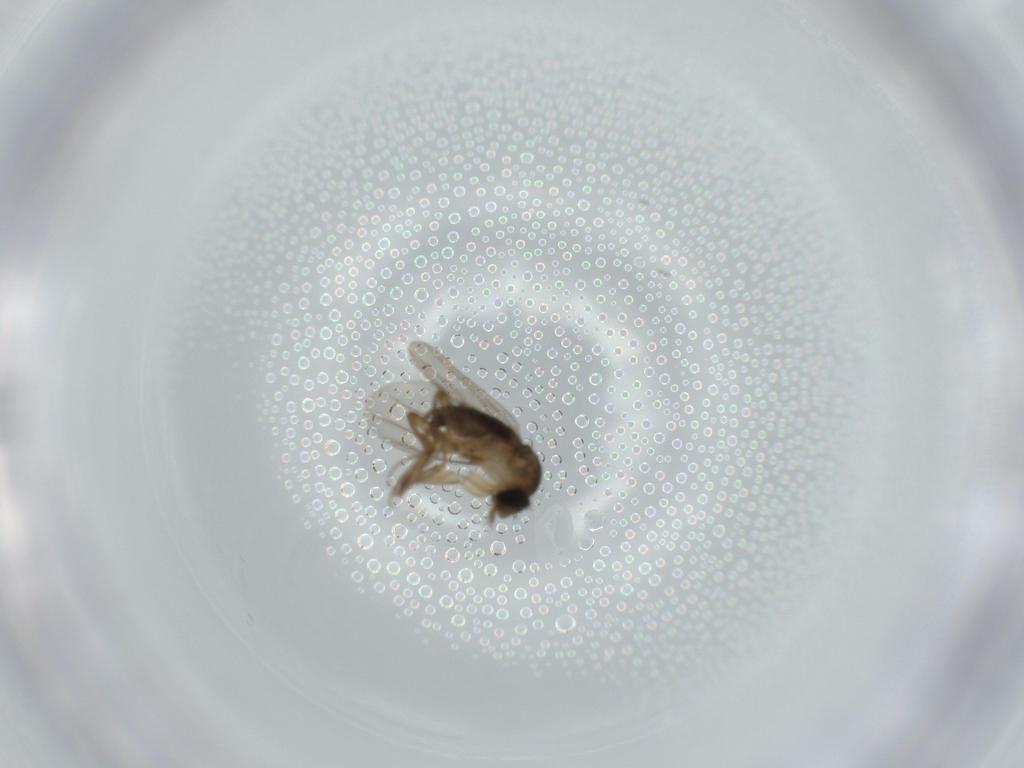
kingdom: Animalia
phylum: Arthropoda
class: Insecta
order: Diptera
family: Phoridae
